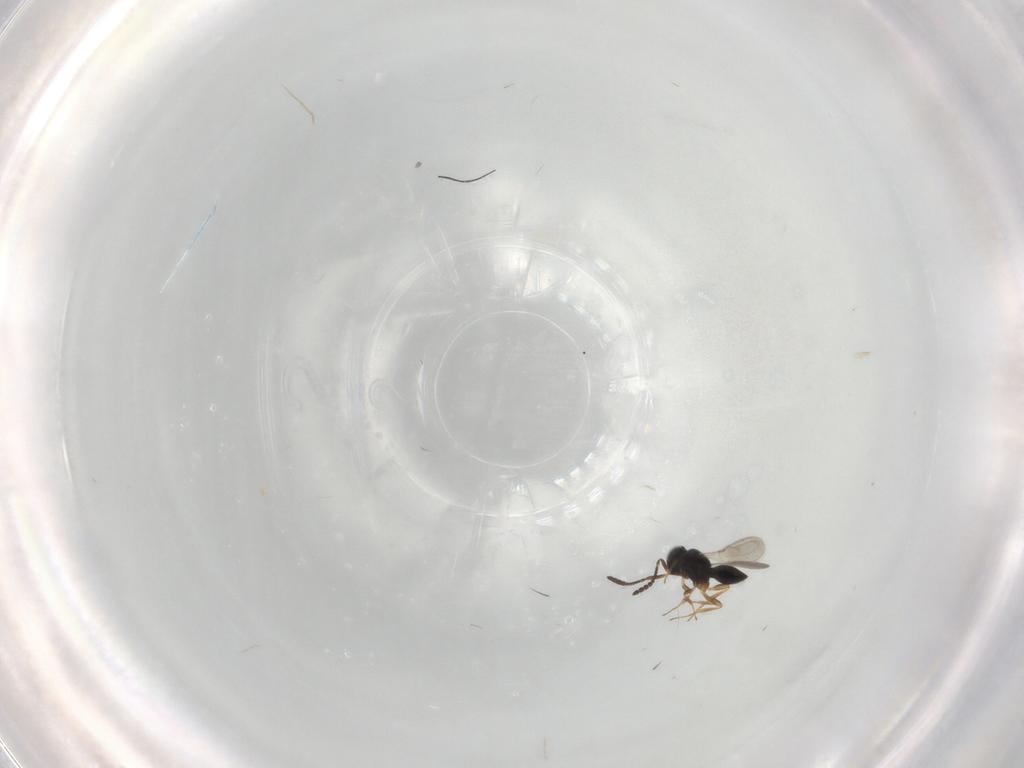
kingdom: Animalia
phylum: Arthropoda
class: Insecta
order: Hymenoptera
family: Scelionidae
